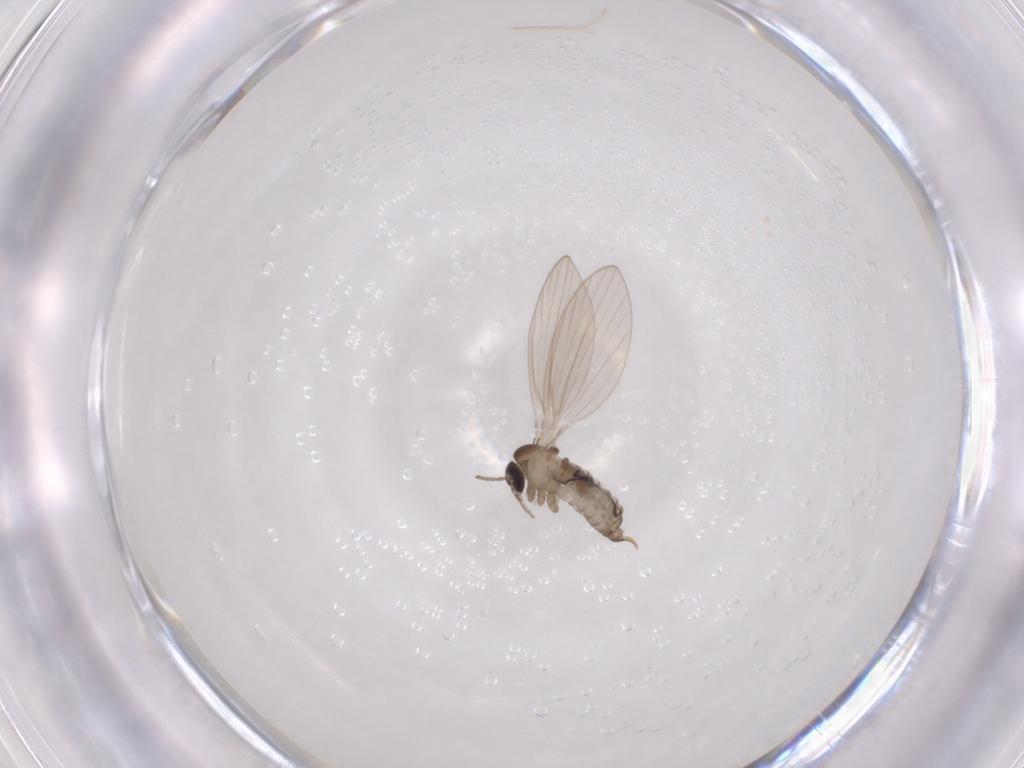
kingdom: Animalia
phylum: Arthropoda
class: Insecta
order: Diptera
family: Psychodidae
